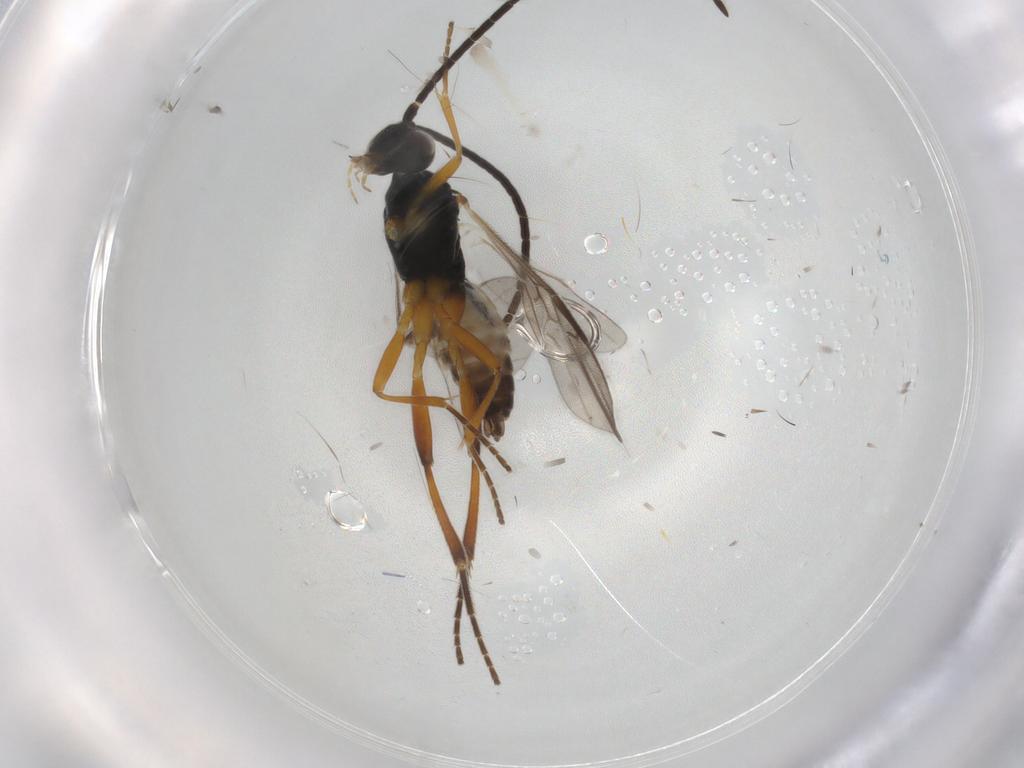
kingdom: Animalia
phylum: Arthropoda
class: Insecta
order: Hymenoptera
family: Braconidae
